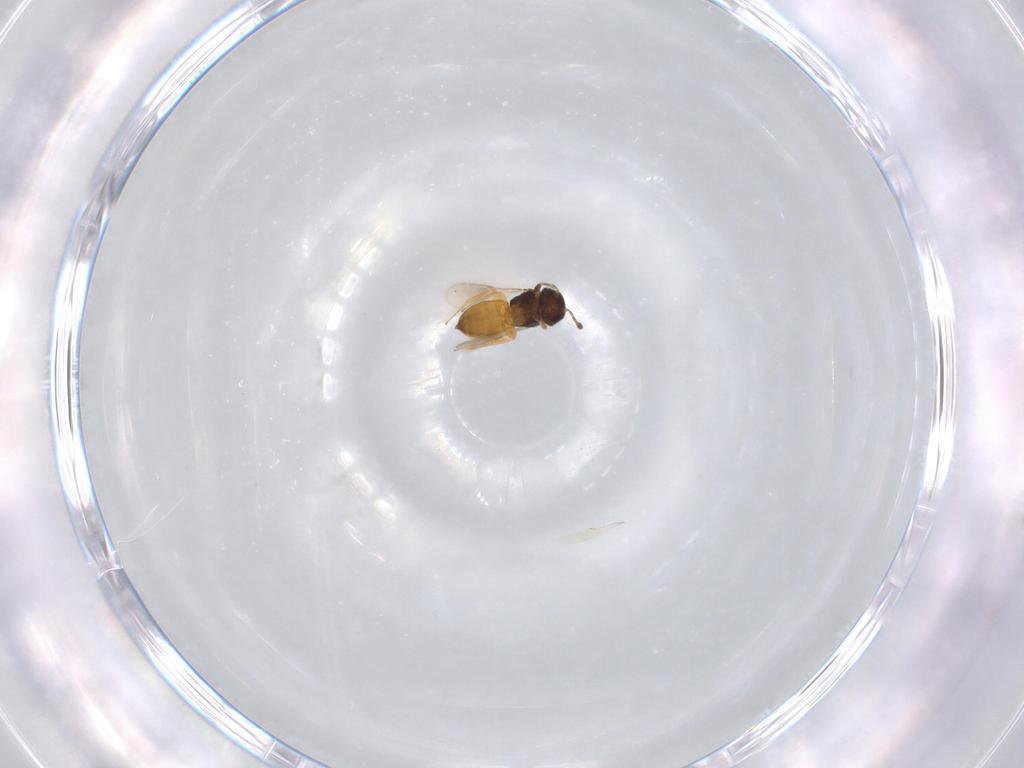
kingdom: Animalia
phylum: Arthropoda
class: Insecta
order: Hymenoptera
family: Scelionidae
